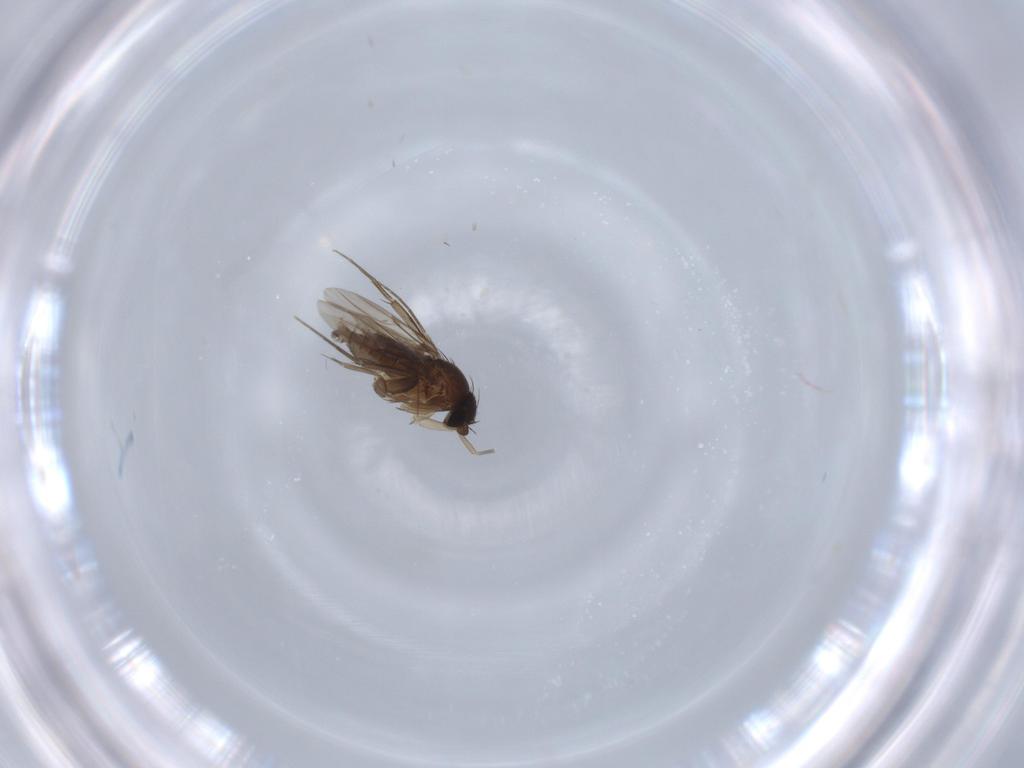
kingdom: Animalia
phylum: Arthropoda
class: Insecta
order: Diptera
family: Phoridae
